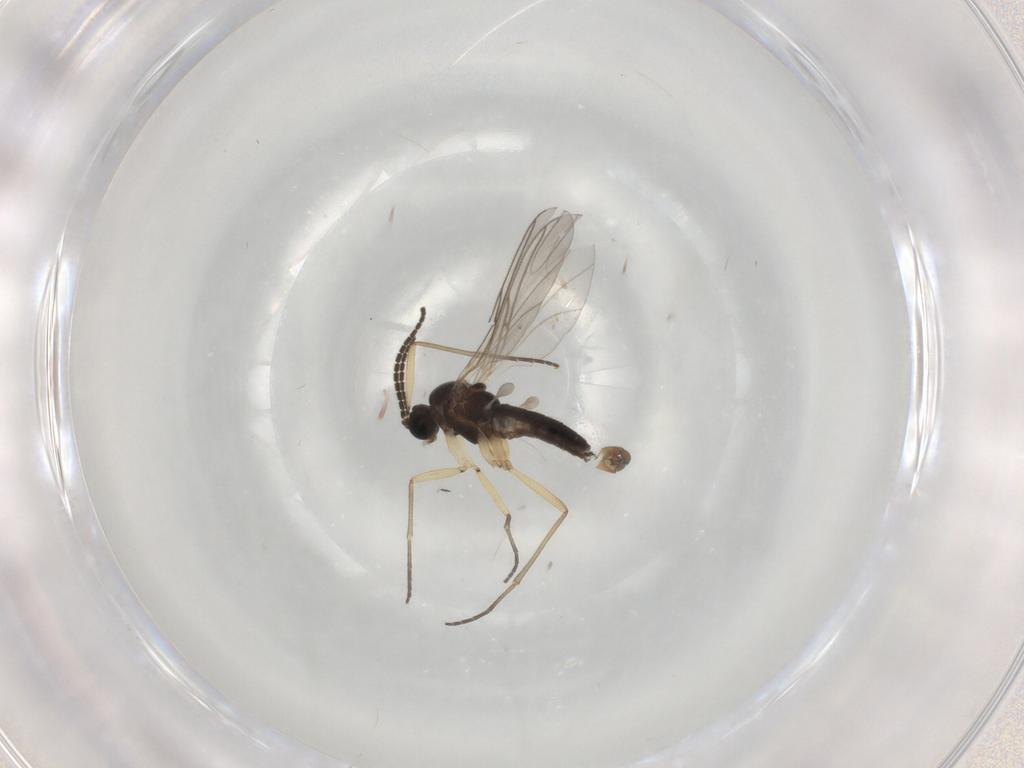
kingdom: Animalia
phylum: Arthropoda
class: Insecta
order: Diptera
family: Sciaridae
